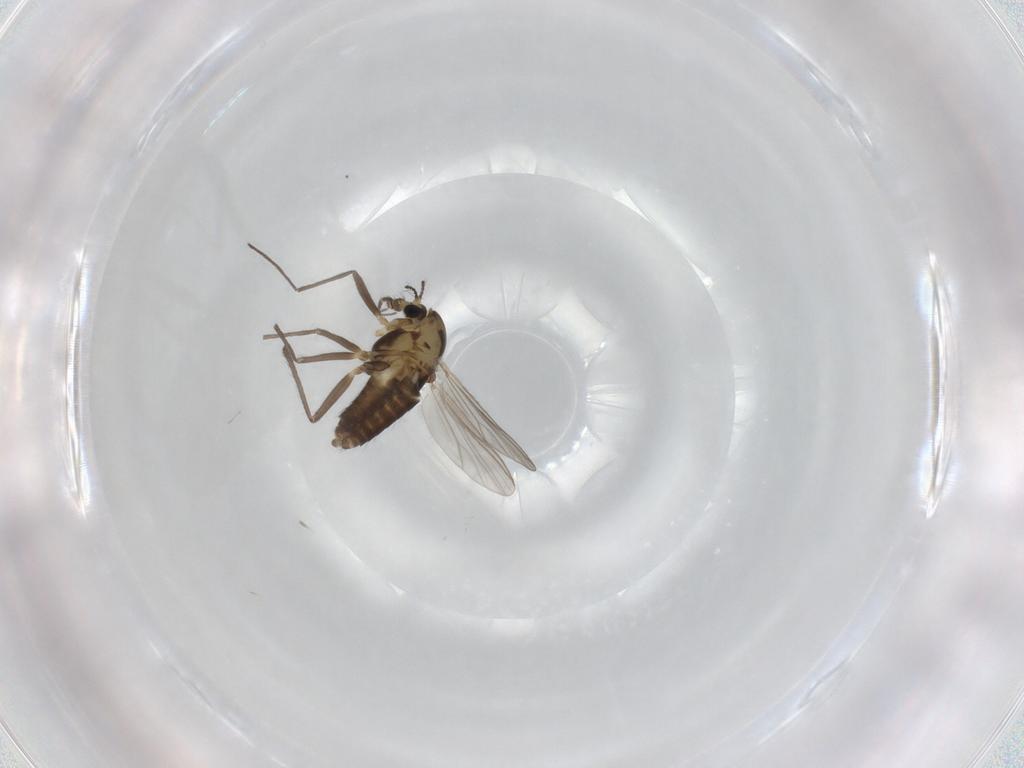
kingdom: Animalia
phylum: Arthropoda
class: Insecta
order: Diptera
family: Chironomidae
